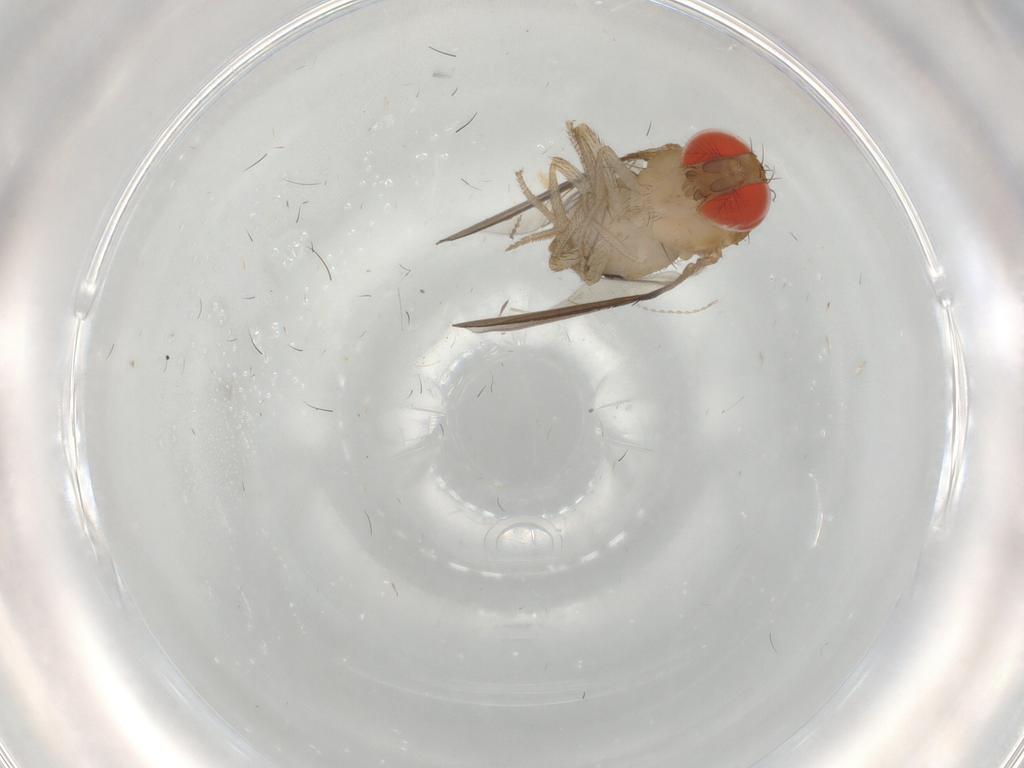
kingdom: Animalia
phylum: Arthropoda
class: Insecta
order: Diptera
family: Drosophilidae
